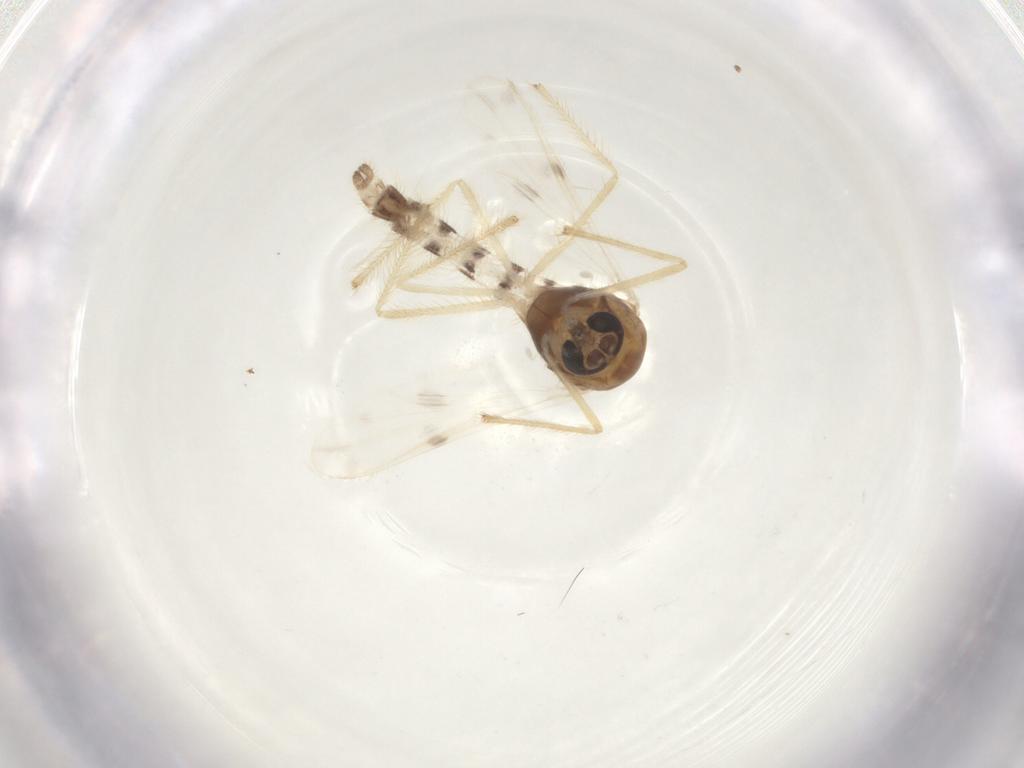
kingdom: Animalia
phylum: Arthropoda
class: Insecta
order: Diptera
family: Chironomidae
